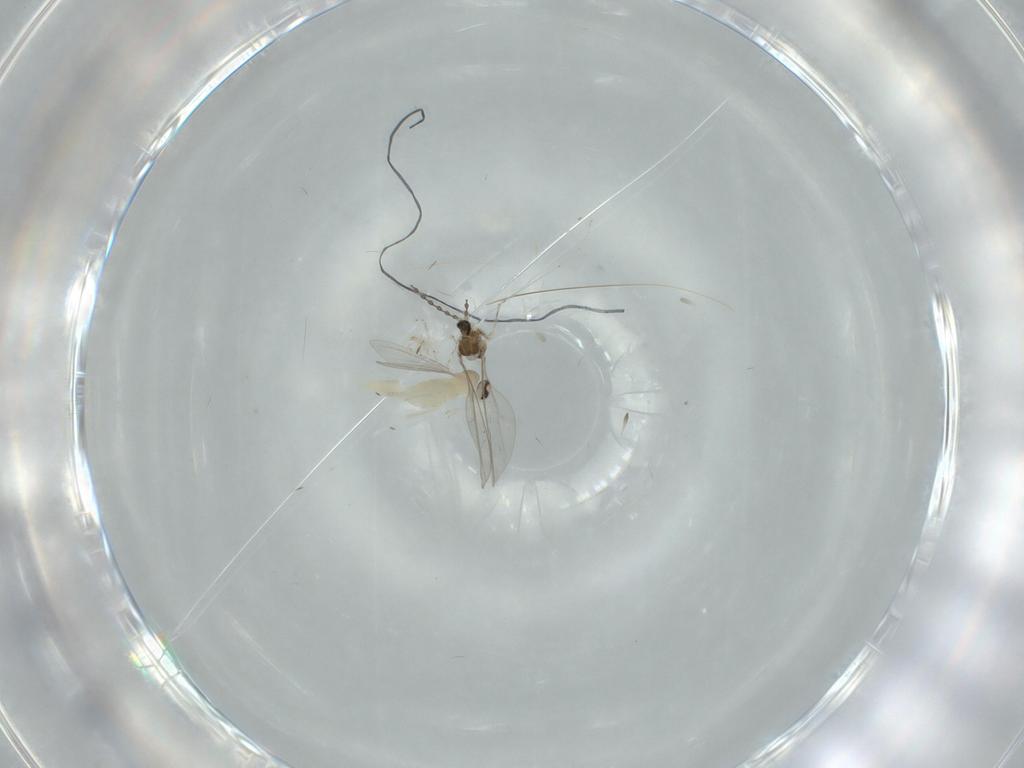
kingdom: Animalia
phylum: Arthropoda
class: Insecta
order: Diptera
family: Cecidomyiidae
